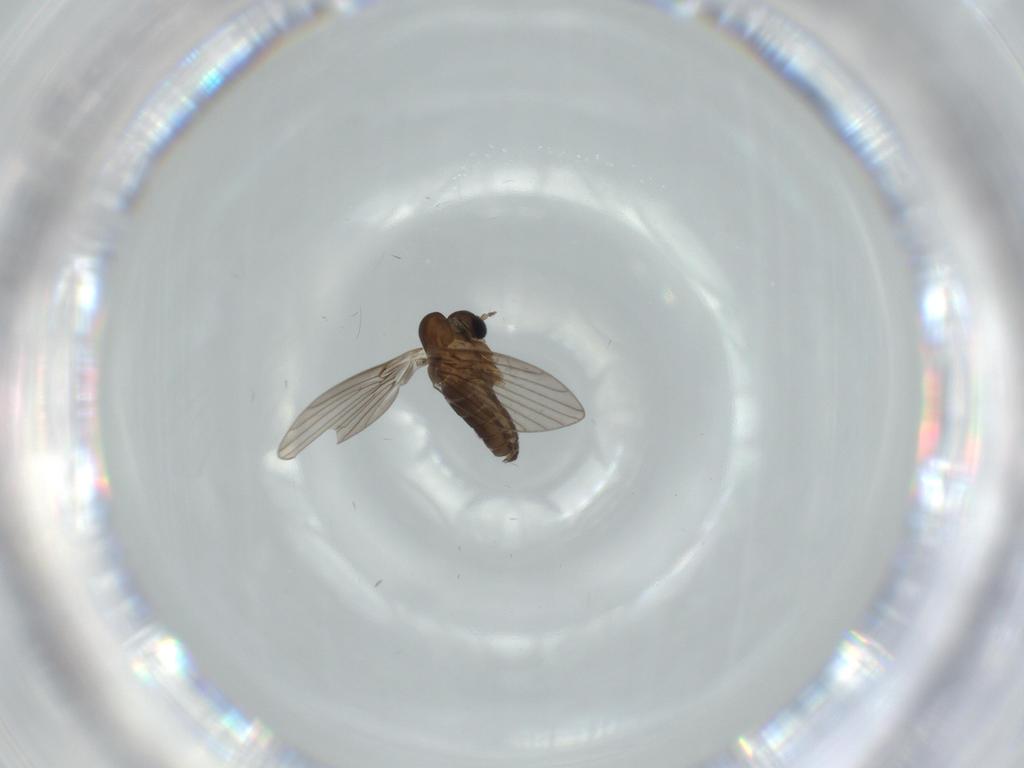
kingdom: Animalia
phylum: Arthropoda
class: Insecta
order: Diptera
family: Psychodidae
